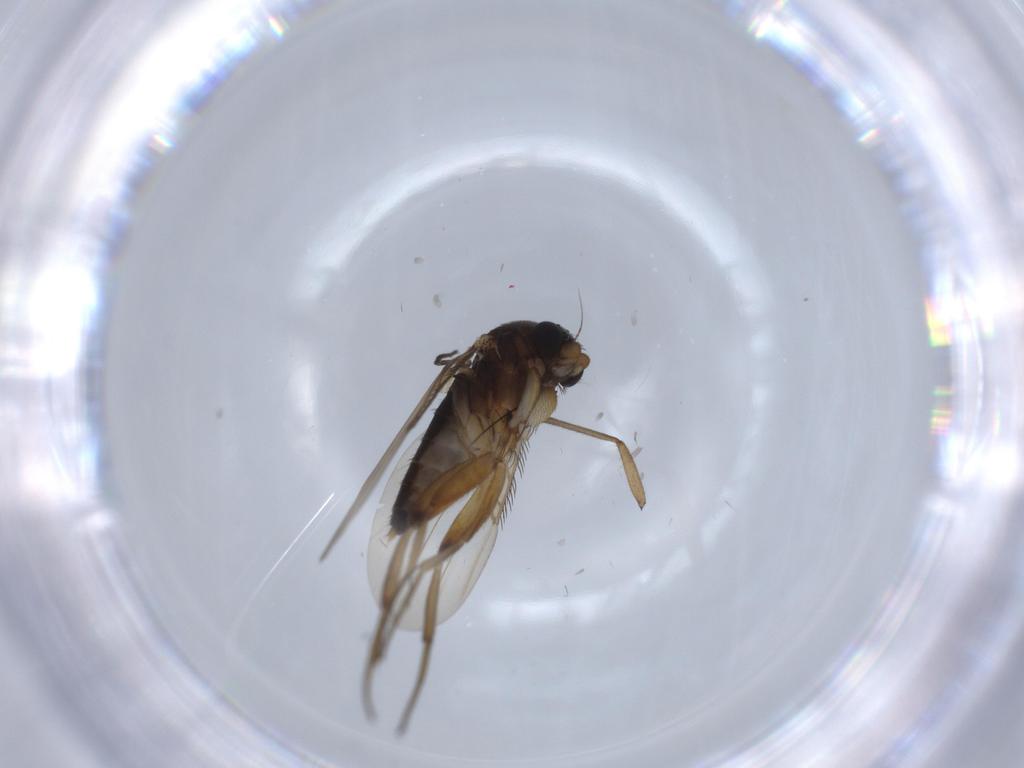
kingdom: Animalia
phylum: Arthropoda
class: Insecta
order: Diptera
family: Phoridae
